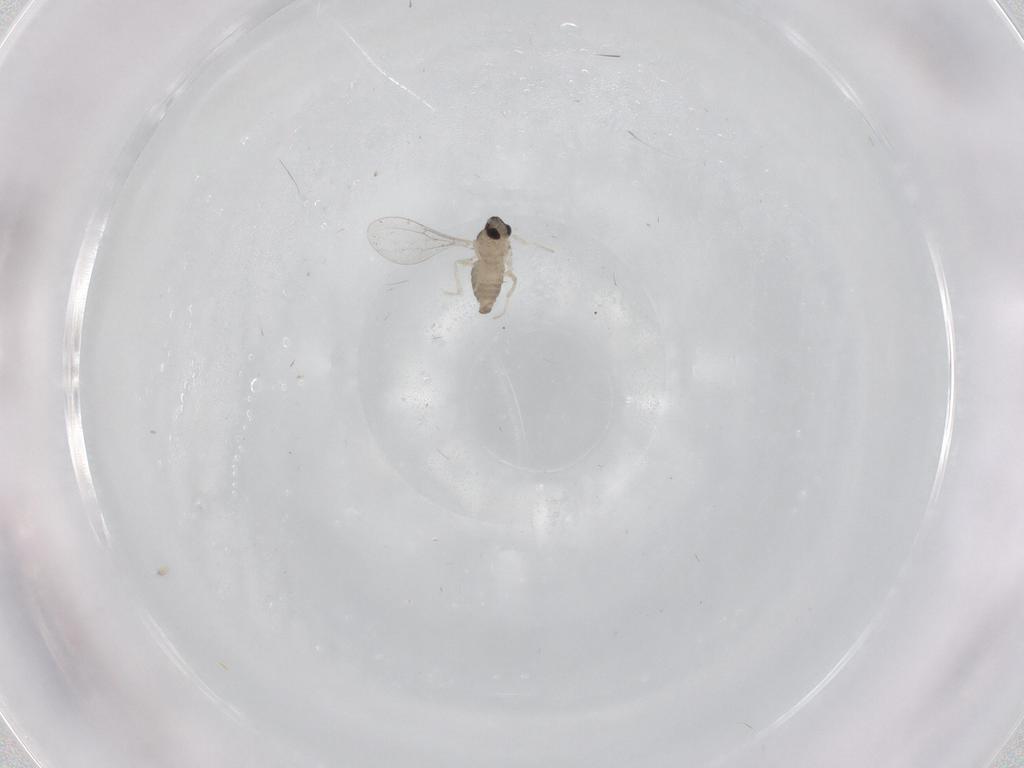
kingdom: Animalia
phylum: Arthropoda
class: Insecta
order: Diptera
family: Cecidomyiidae
